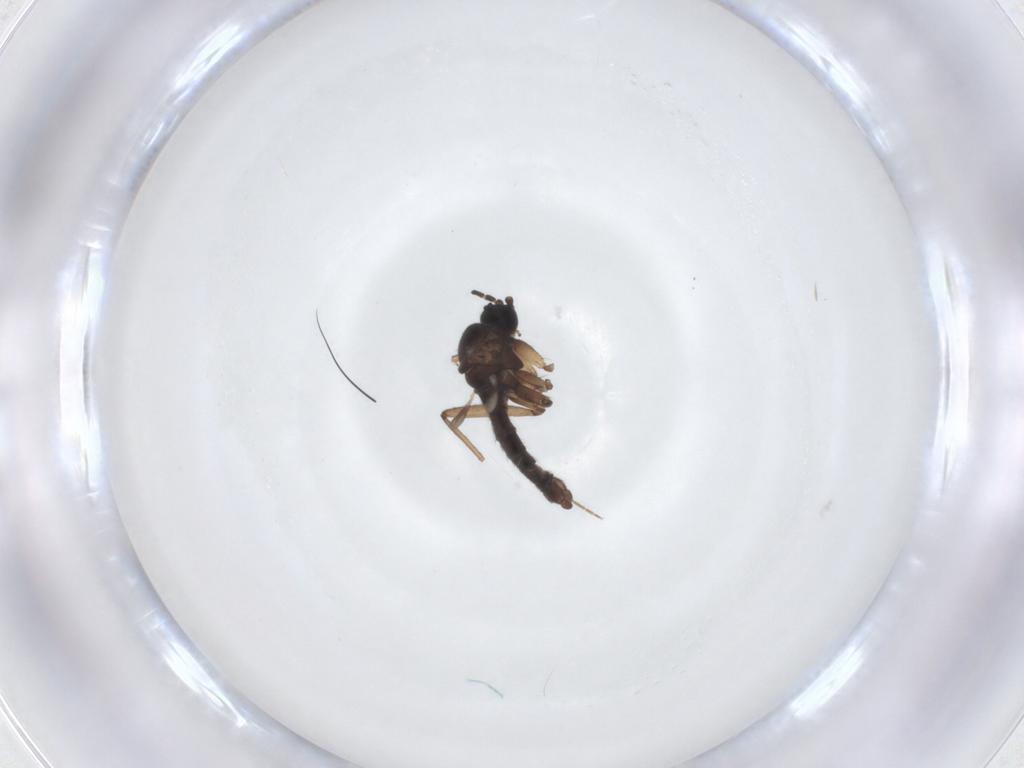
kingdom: Animalia
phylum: Arthropoda
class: Insecta
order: Diptera
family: Sciaridae
